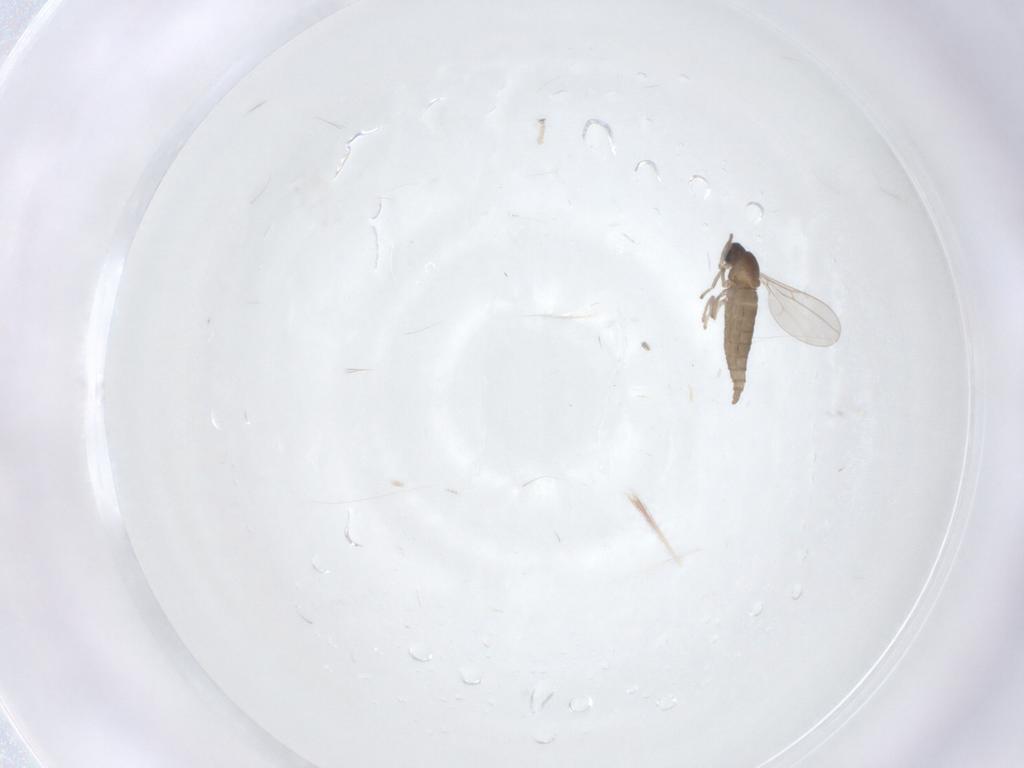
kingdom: Animalia
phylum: Arthropoda
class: Insecta
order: Diptera
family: Cecidomyiidae
